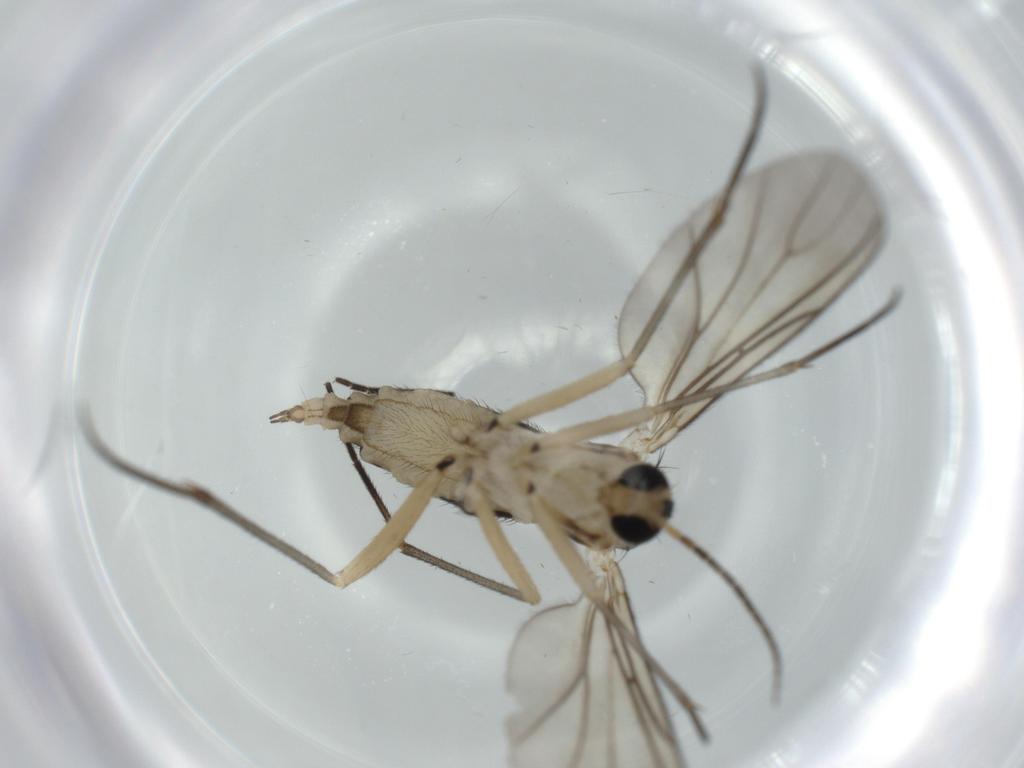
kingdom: Animalia
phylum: Arthropoda
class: Insecta
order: Diptera
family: Sciaridae
